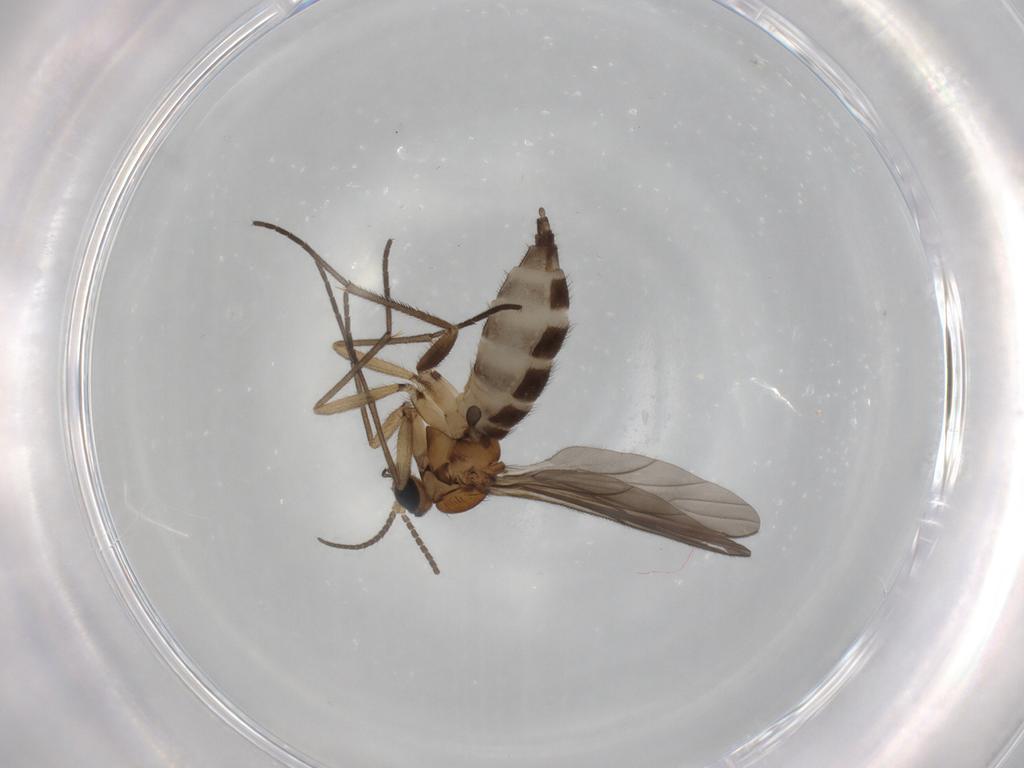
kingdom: Animalia
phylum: Arthropoda
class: Insecta
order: Diptera
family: Sciaridae
